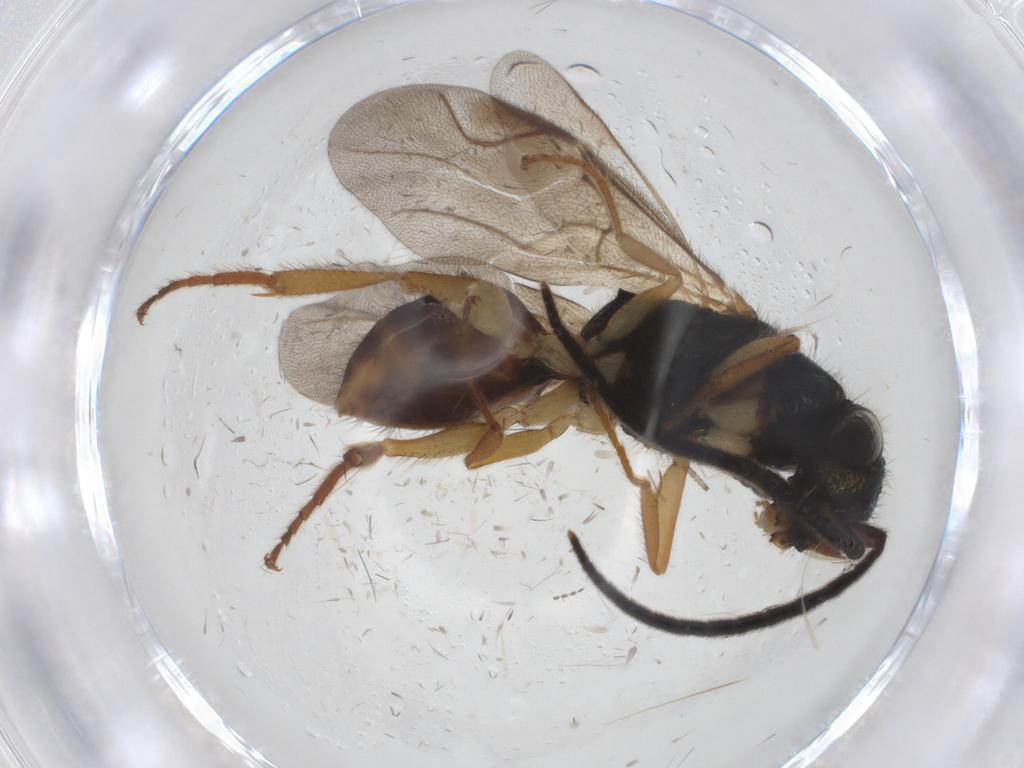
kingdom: Animalia
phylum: Arthropoda
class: Insecta
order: Hymenoptera
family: Chrysididae
